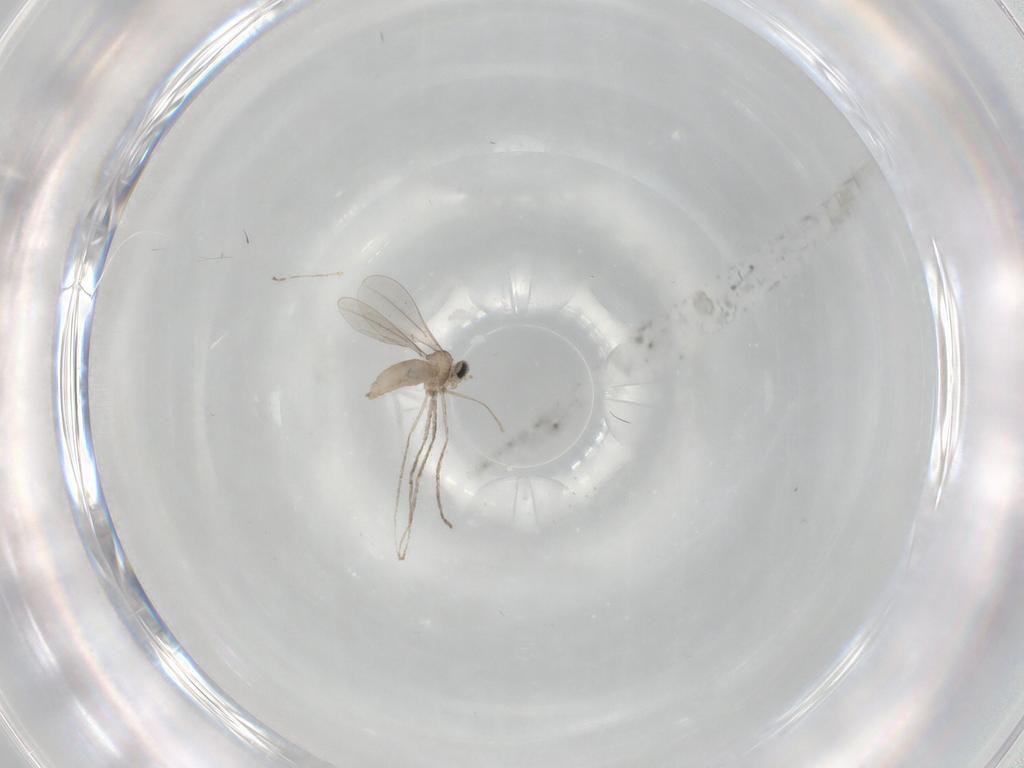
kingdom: Animalia
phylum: Arthropoda
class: Insecta
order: Diptera
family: Cecidomyiidae
